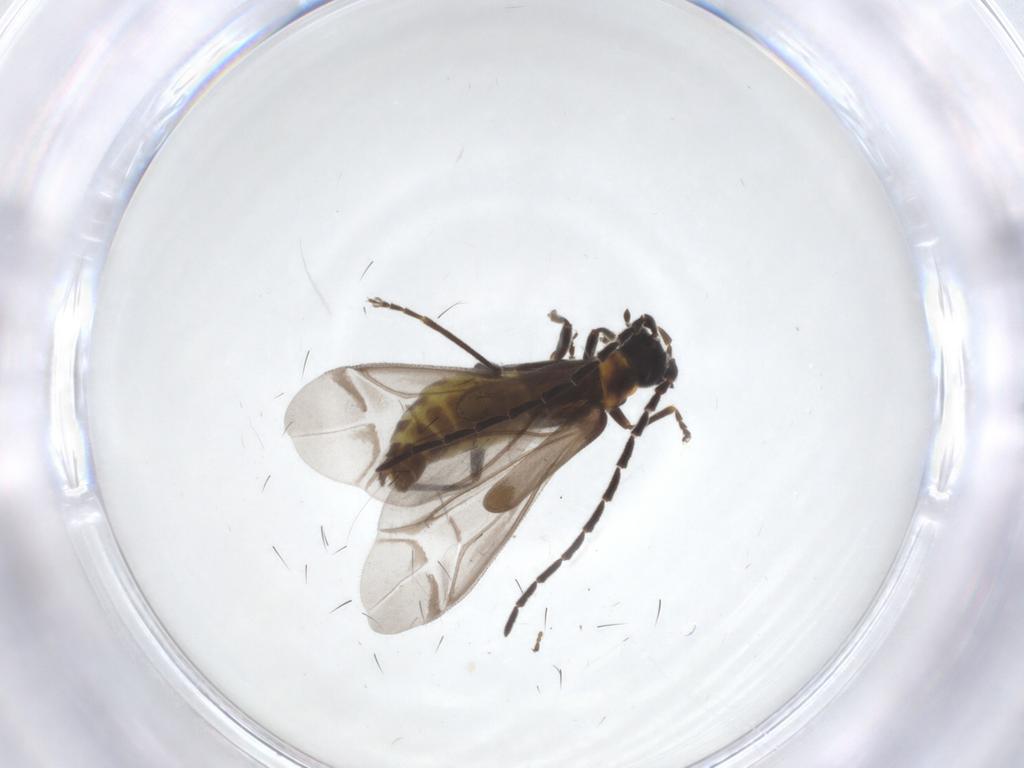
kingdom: Animalia
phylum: Arthropoda
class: Insecta
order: Coleoptera
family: Cantharidae
